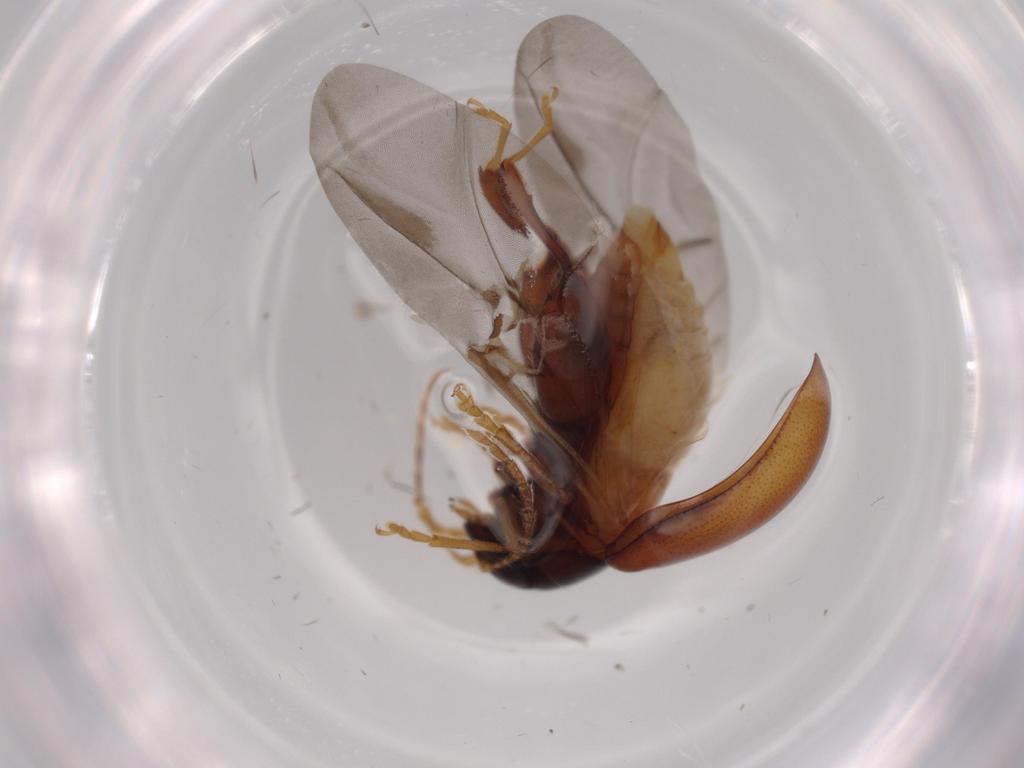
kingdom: Animalia
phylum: Arthropoda
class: Insecta
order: Coleoptera
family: Chrysomelidae
